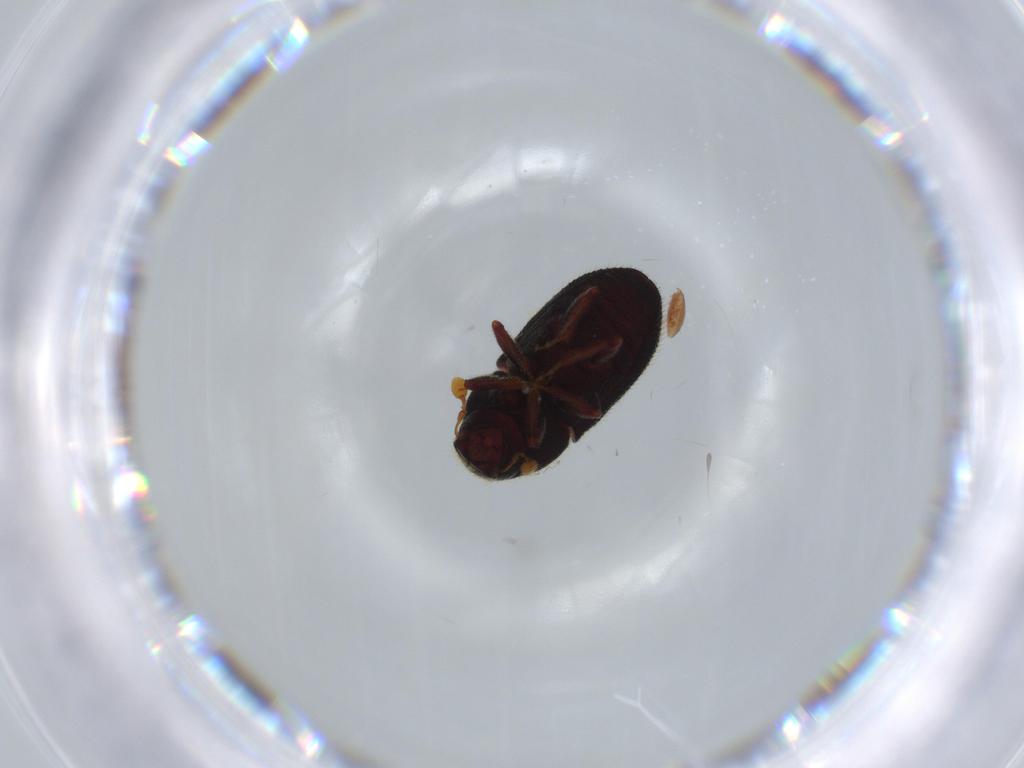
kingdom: Animalia
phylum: Arthropoda
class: Insecta
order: Coleoptera
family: Curculionidae
